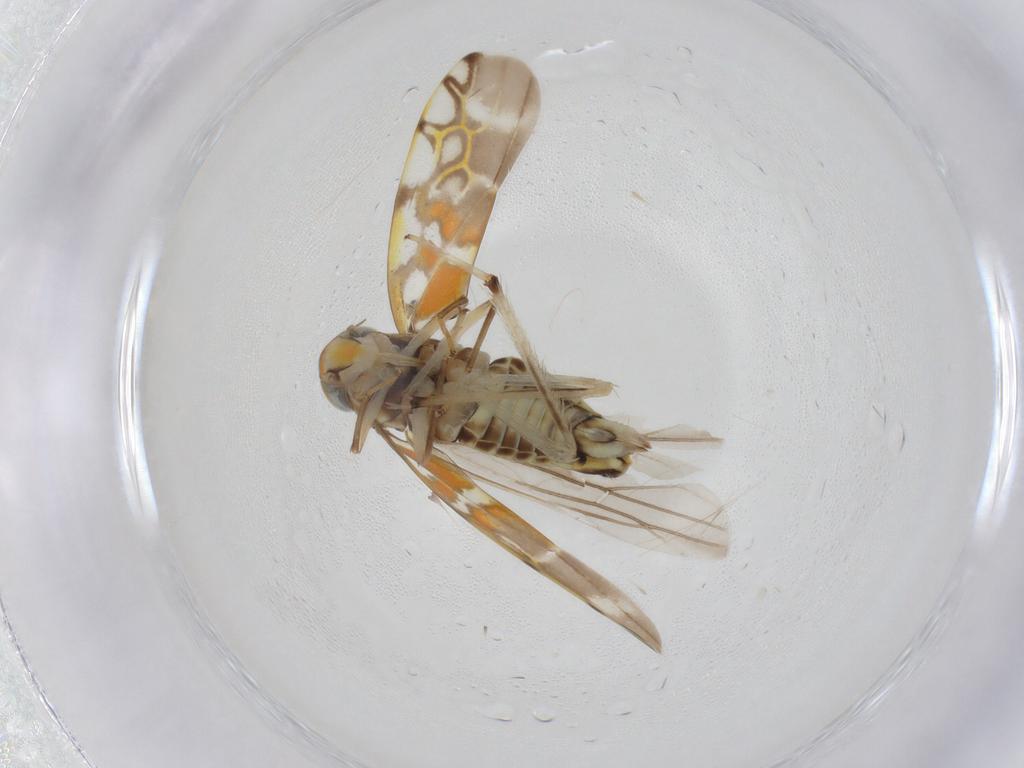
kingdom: Animalia
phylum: Arthropoda
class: Insecta
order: Hemiptera
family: Cicadellidae
